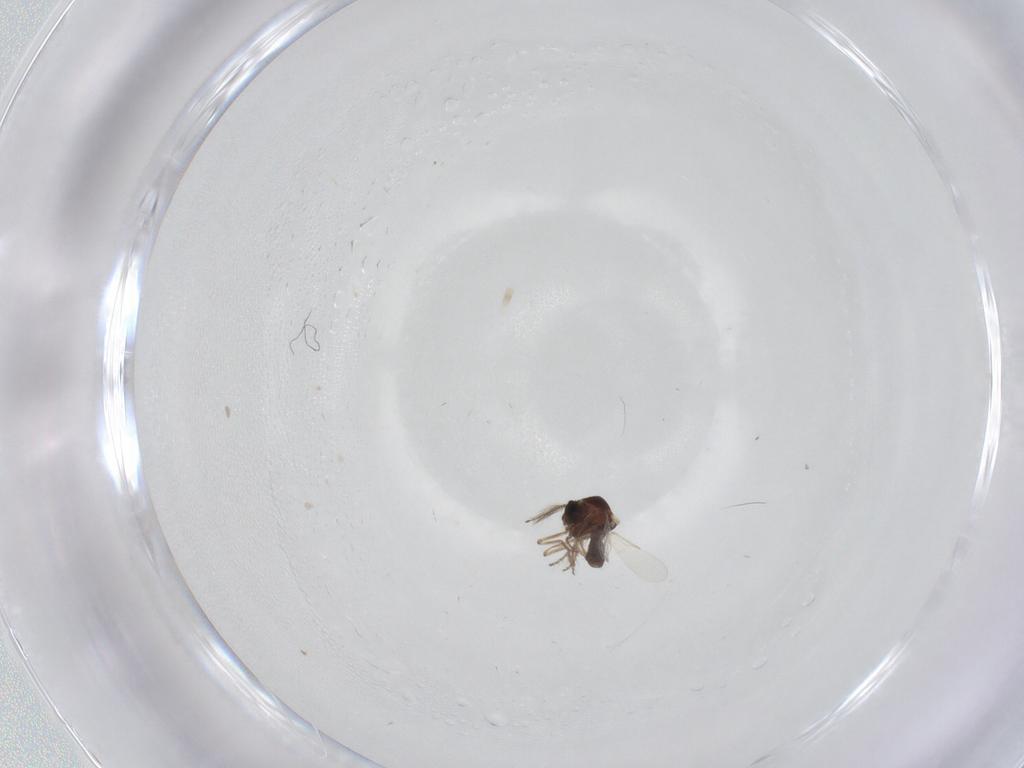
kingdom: Animalia
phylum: Arthropoda
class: Insecta
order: Diptera
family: Ceratopogonidae
